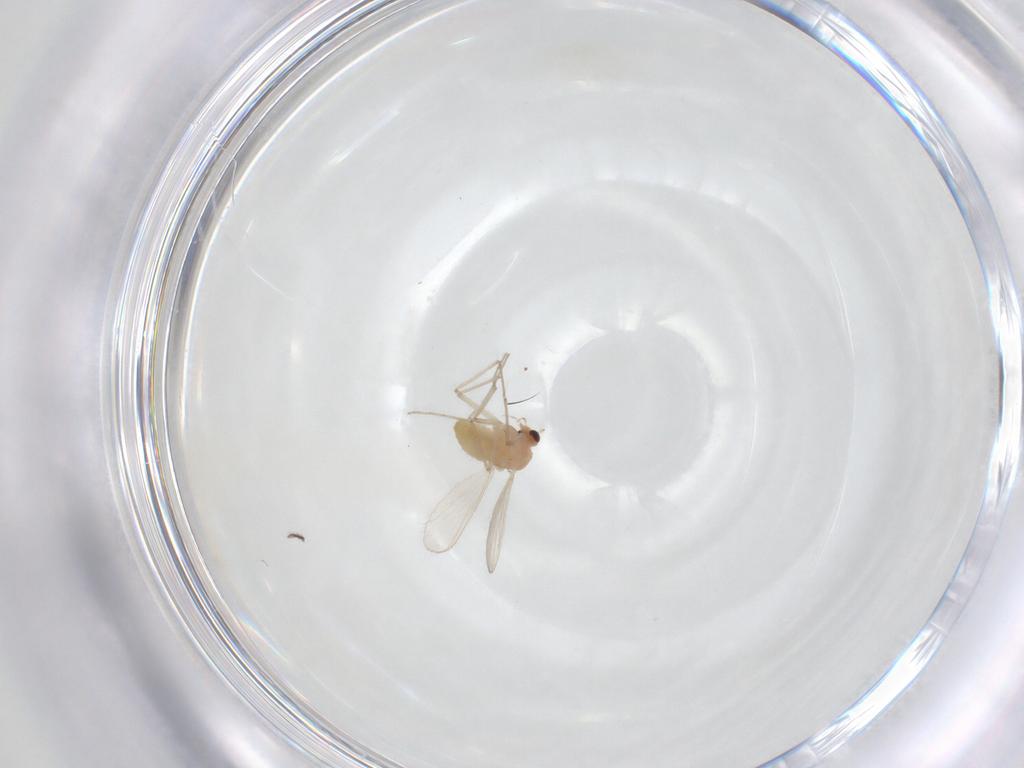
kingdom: Animalia
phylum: Arthropoda
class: Insecta
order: Diptera
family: Chironomidae
